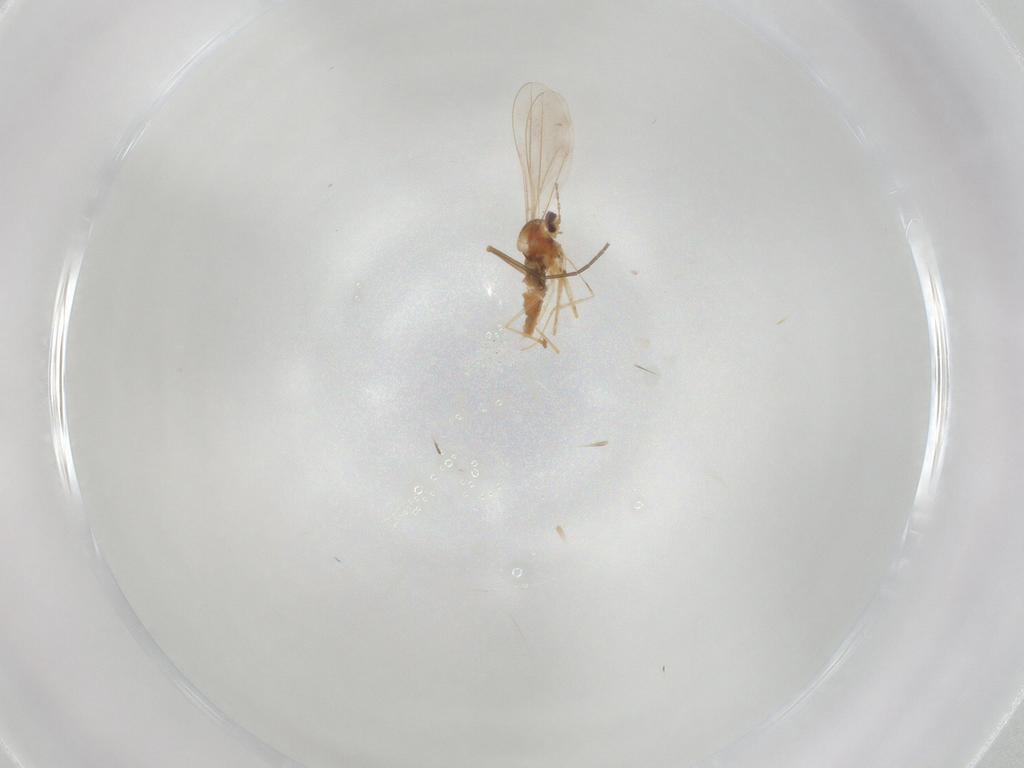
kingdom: Animalia
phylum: Arthropoda
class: Insecta
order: Diptera
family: Cecidomyiidae
